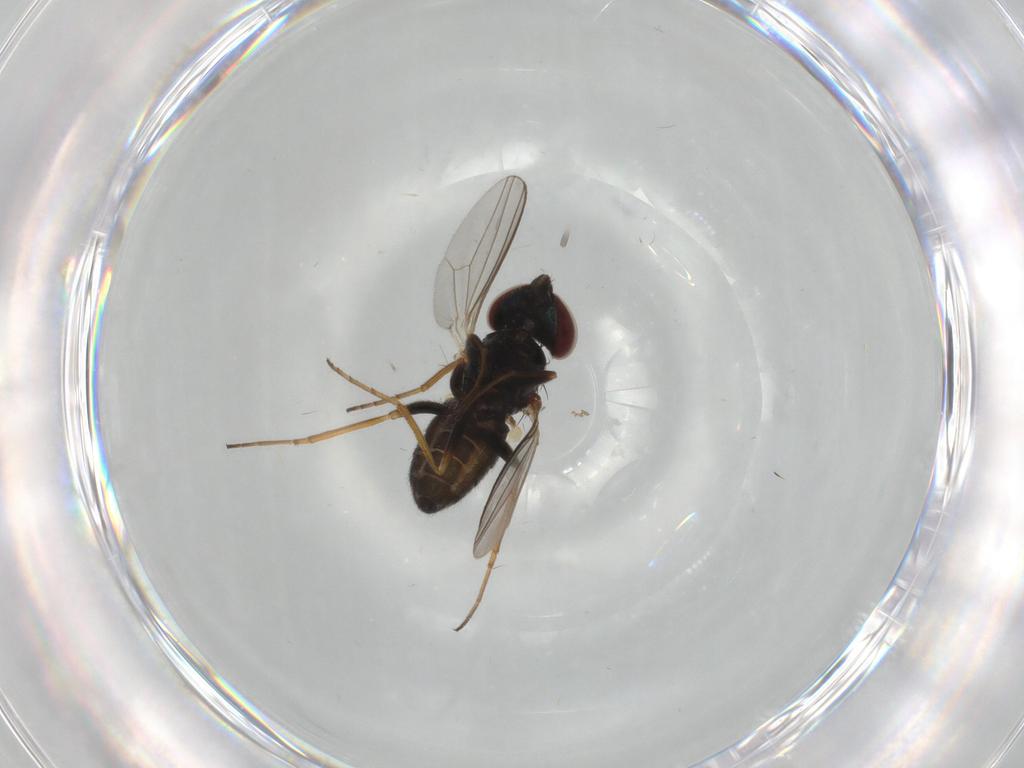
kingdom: Animalia
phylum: Arthropoda
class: Insecta
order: Diptera
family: Dolichopodidae
